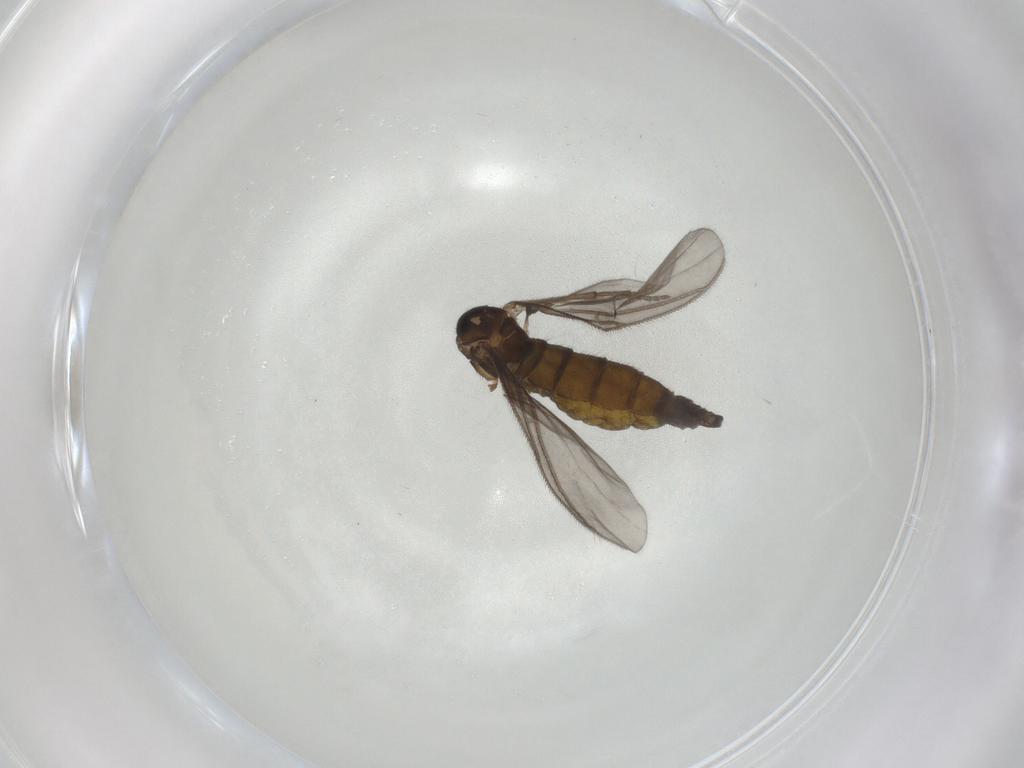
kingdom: Animalia
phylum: Arthropoda
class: Insecta
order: Diptera
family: Sciaridae
